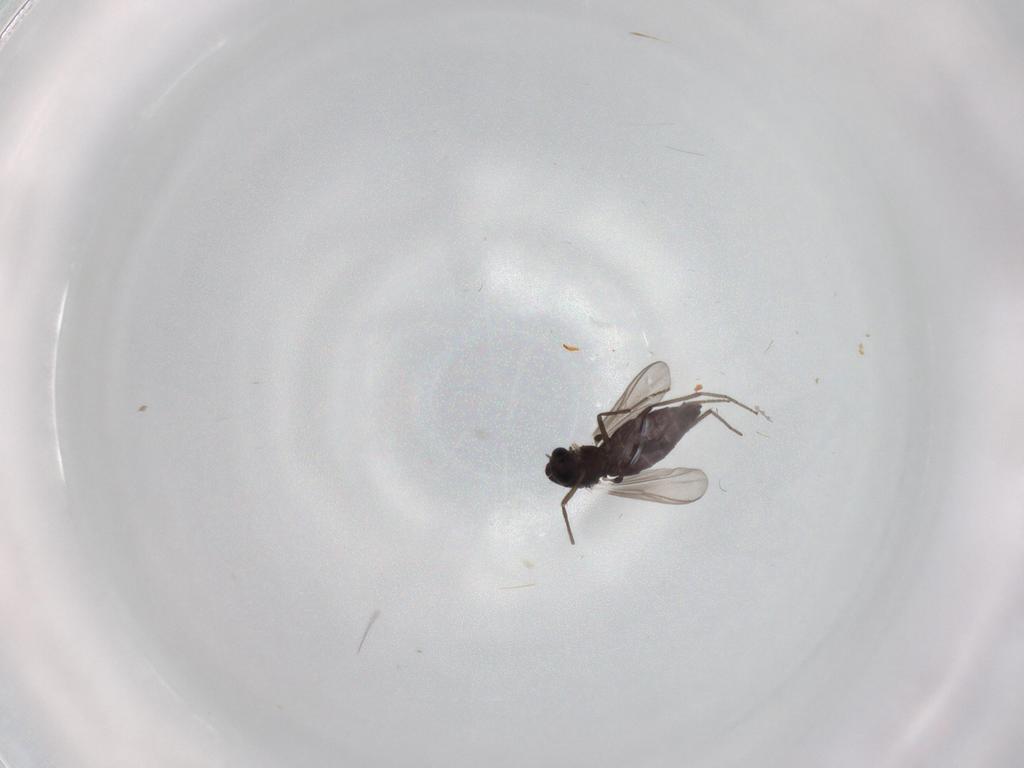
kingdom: Animalia
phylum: Arthropoda
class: Insecta
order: Diptera
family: Chironomidae
